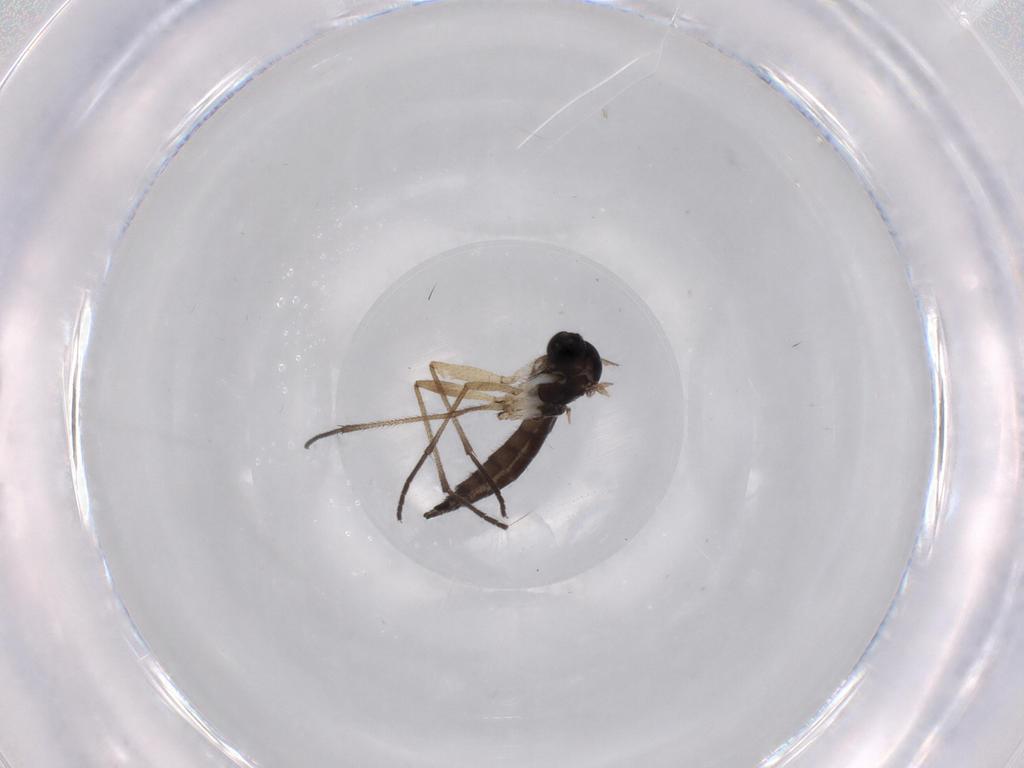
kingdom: Animalia
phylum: Arthropoda
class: Insecta
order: Diptera
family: Sciaridae
